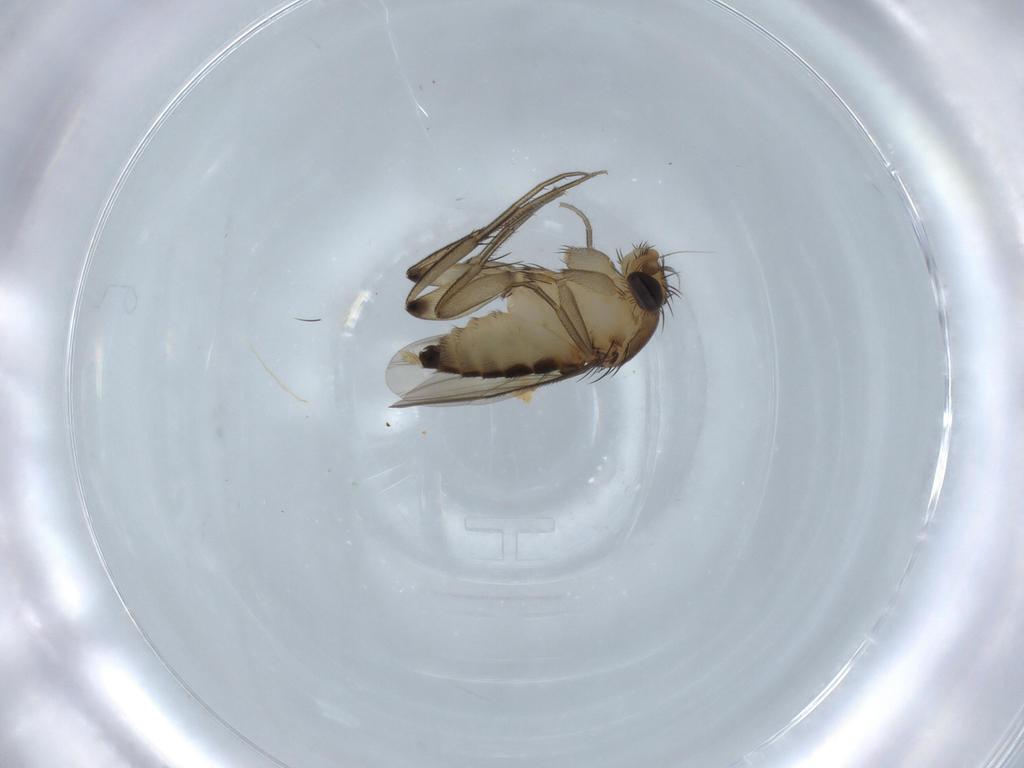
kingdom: Animalia
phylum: Arthropoda
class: Insecta
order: Diptera
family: Phoridae
